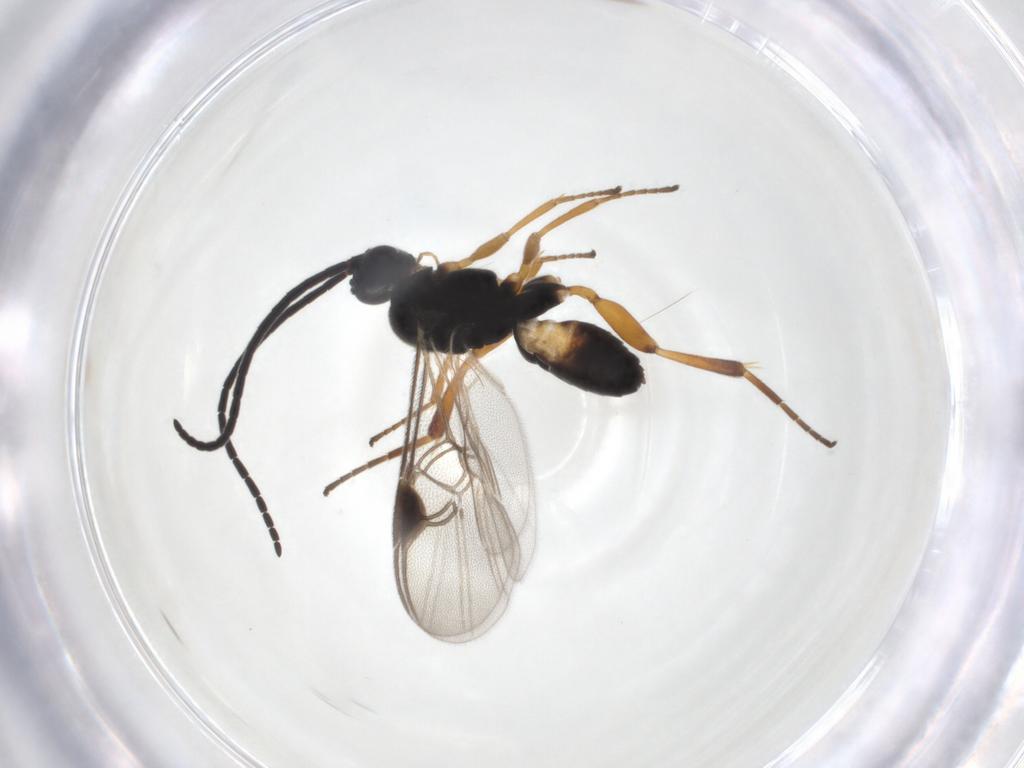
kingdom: Animalia
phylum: Arthropoda
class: Insecta
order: Hymenoptera
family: Braconidae
